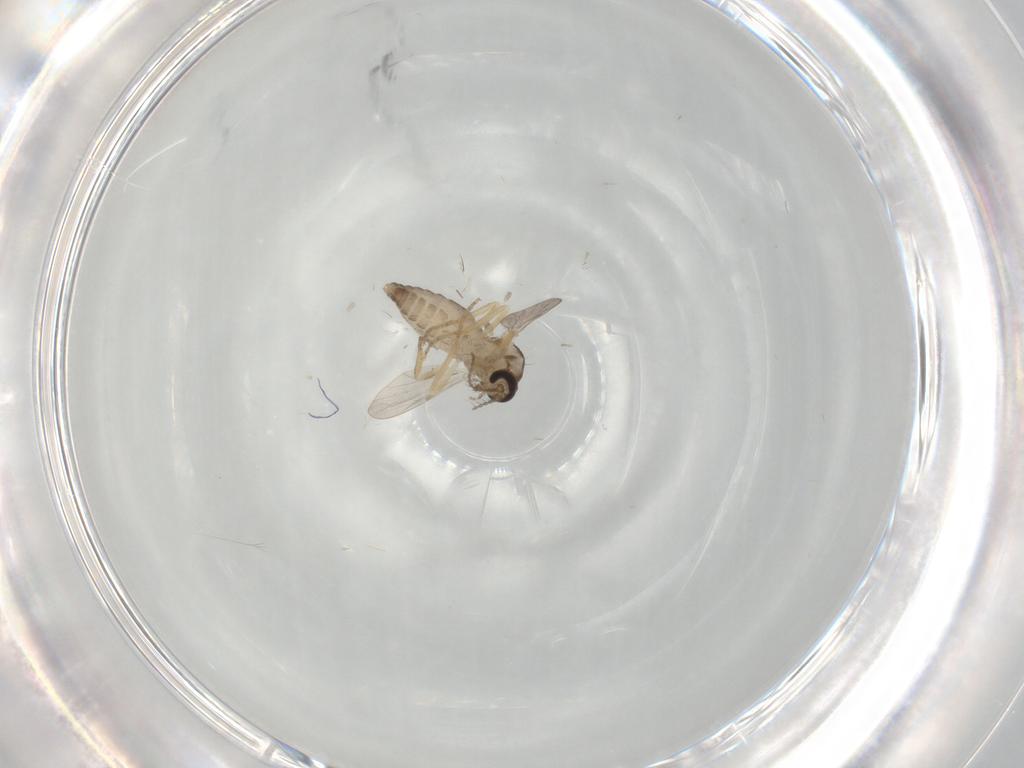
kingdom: Animalia
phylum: Arthropoda
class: Insecta
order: Diptera
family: Ceratopogonidae
